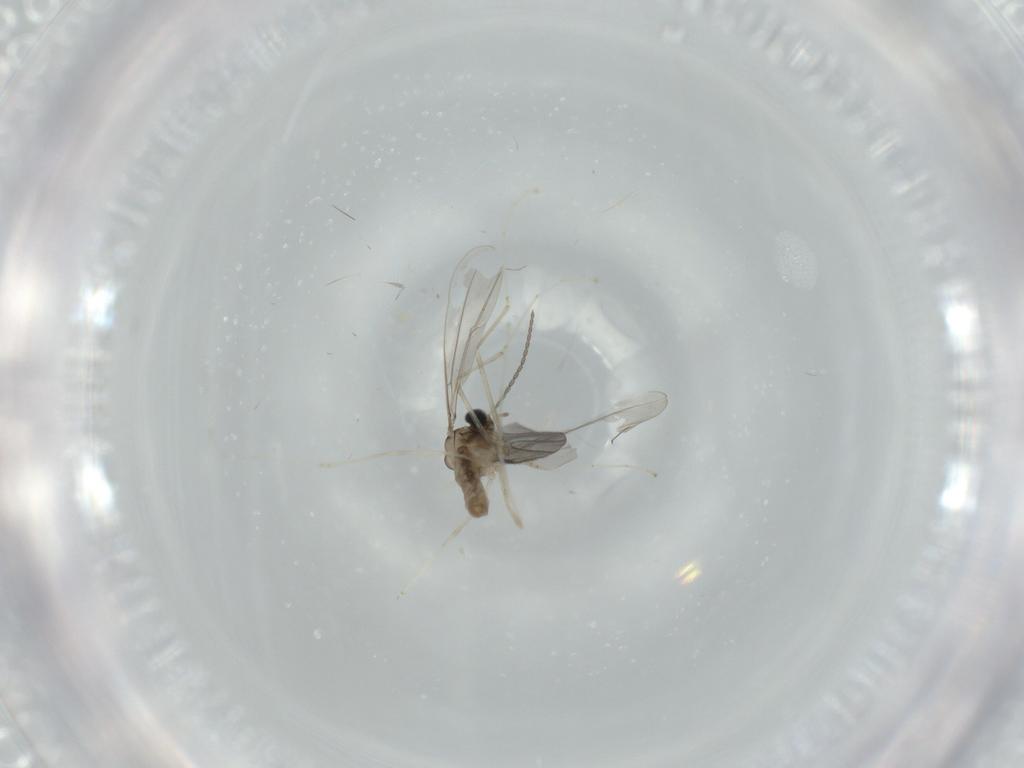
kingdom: Animalia
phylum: Arthropoda
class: Insecta
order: Diptera
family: Cecidomyiidae
